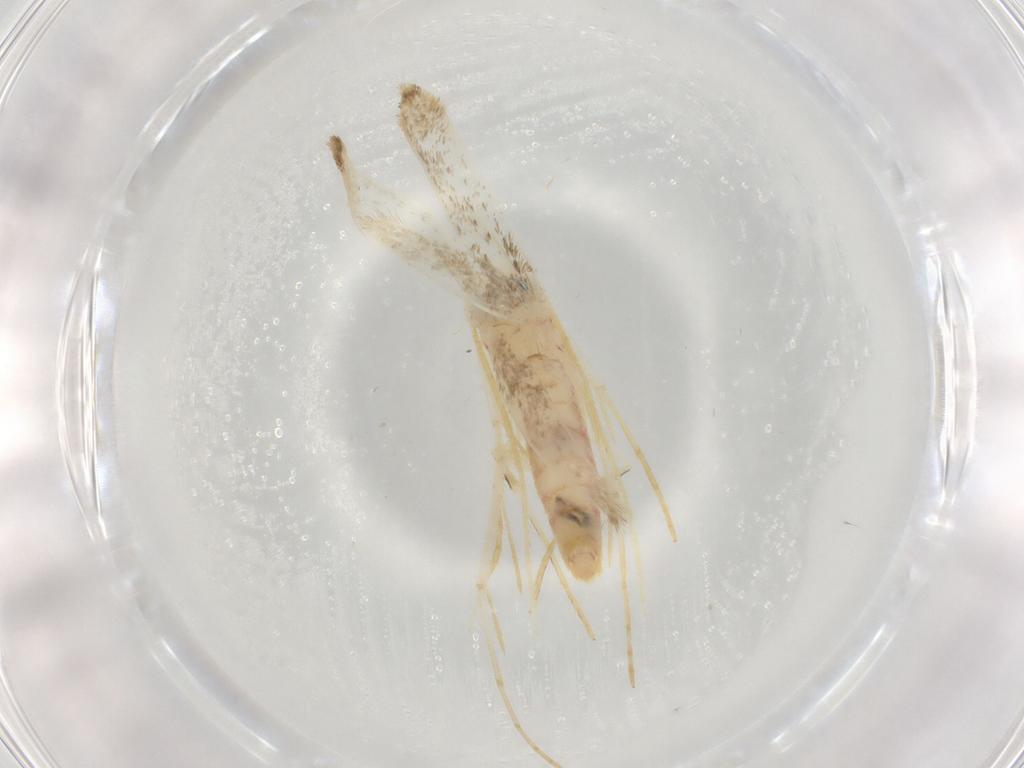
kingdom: Animalia
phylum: Arthropoda
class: Insecta
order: Lepidoptera
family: Lyonetiidae
